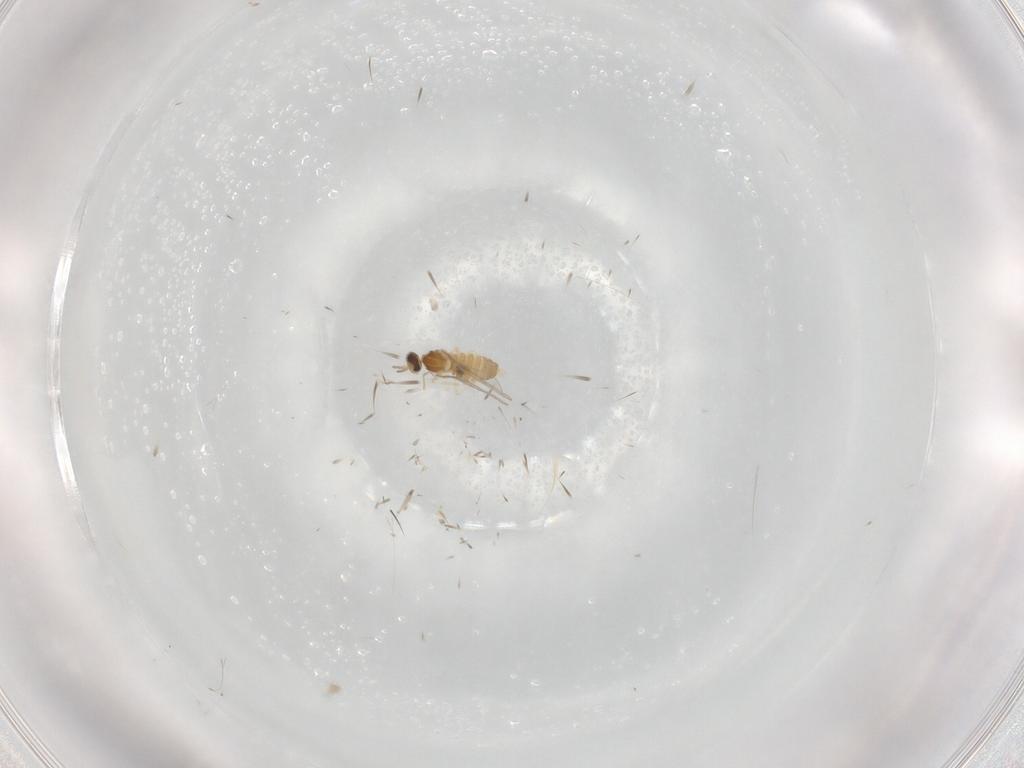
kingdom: Animalia
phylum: Arthropoda
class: Insecta
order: Diptera
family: Cecidomyiidae
